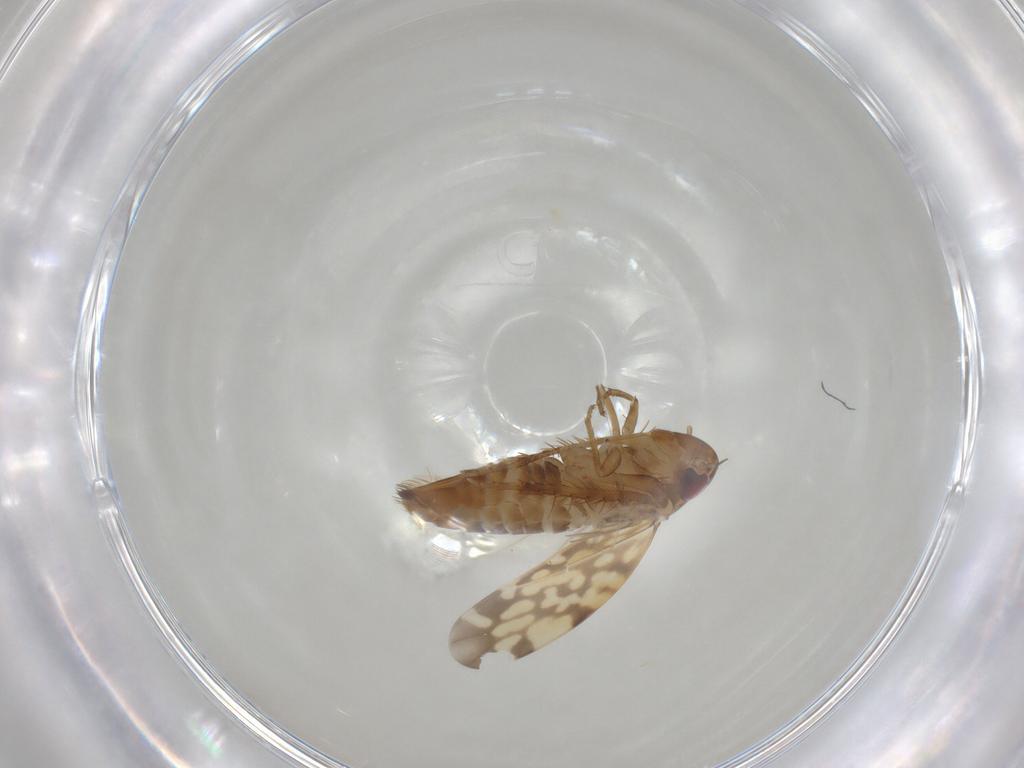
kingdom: Animalia
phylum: Arthropoda
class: Insecta
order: Hemiptera
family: Cicadellidae
